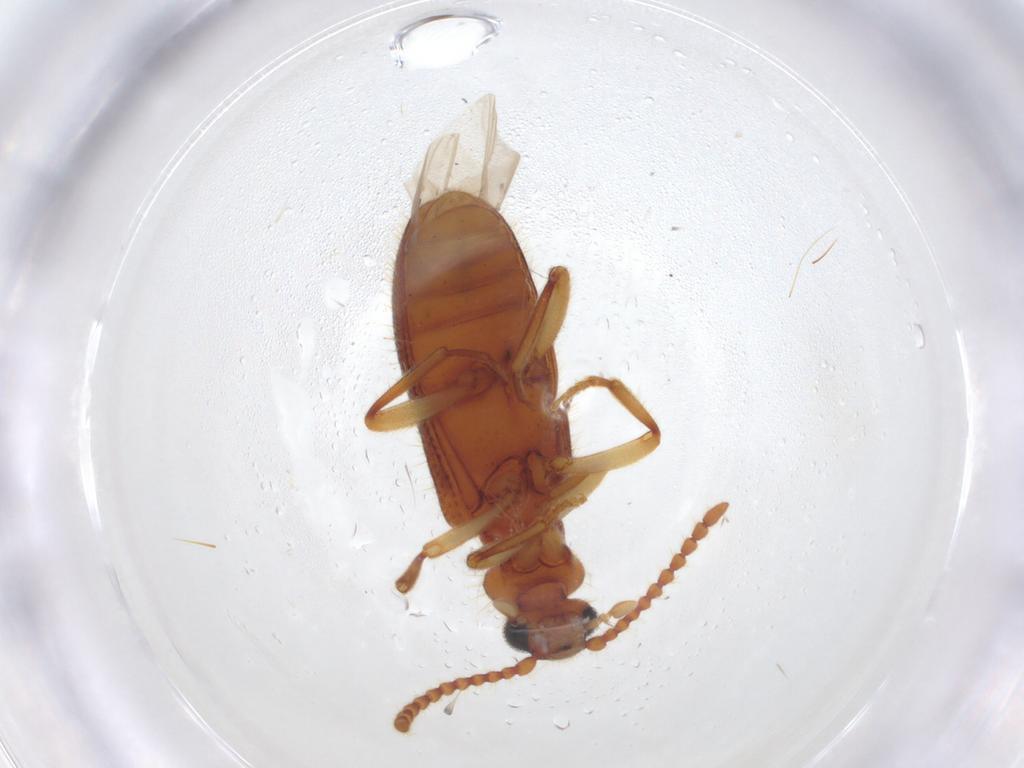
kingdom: Animalia
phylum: Arthropoda
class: Insecta
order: Coleoptera
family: Anthicidae
